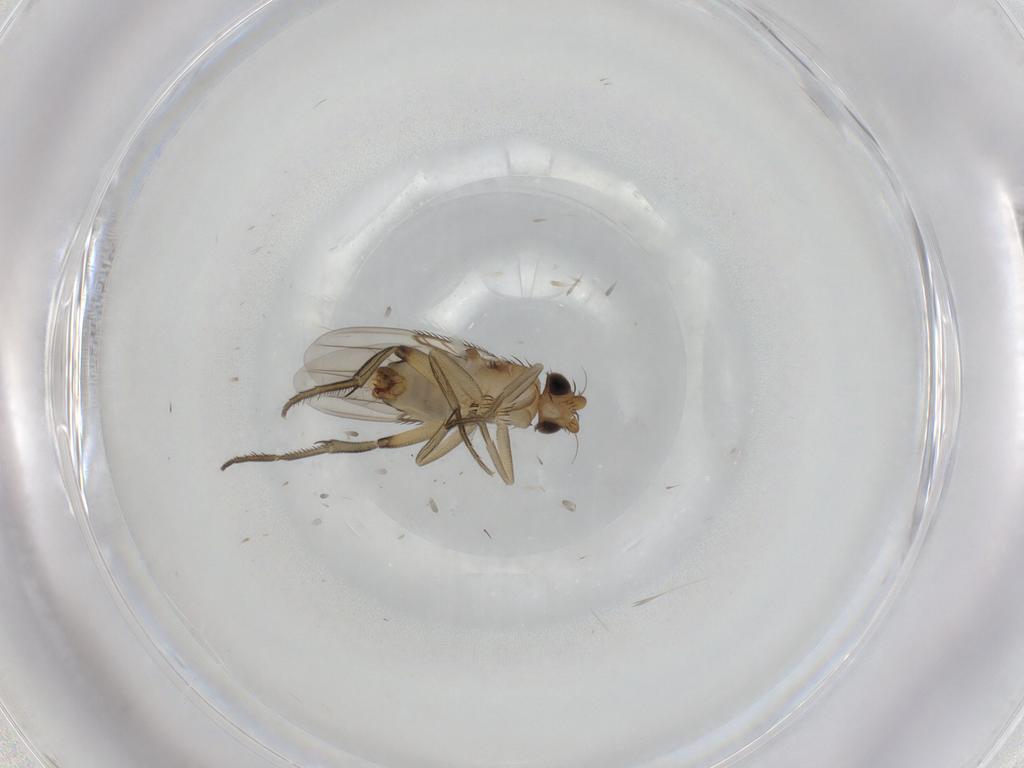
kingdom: Animalia
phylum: Arthropoda
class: Insecta
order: Diptera
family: Phoridae
